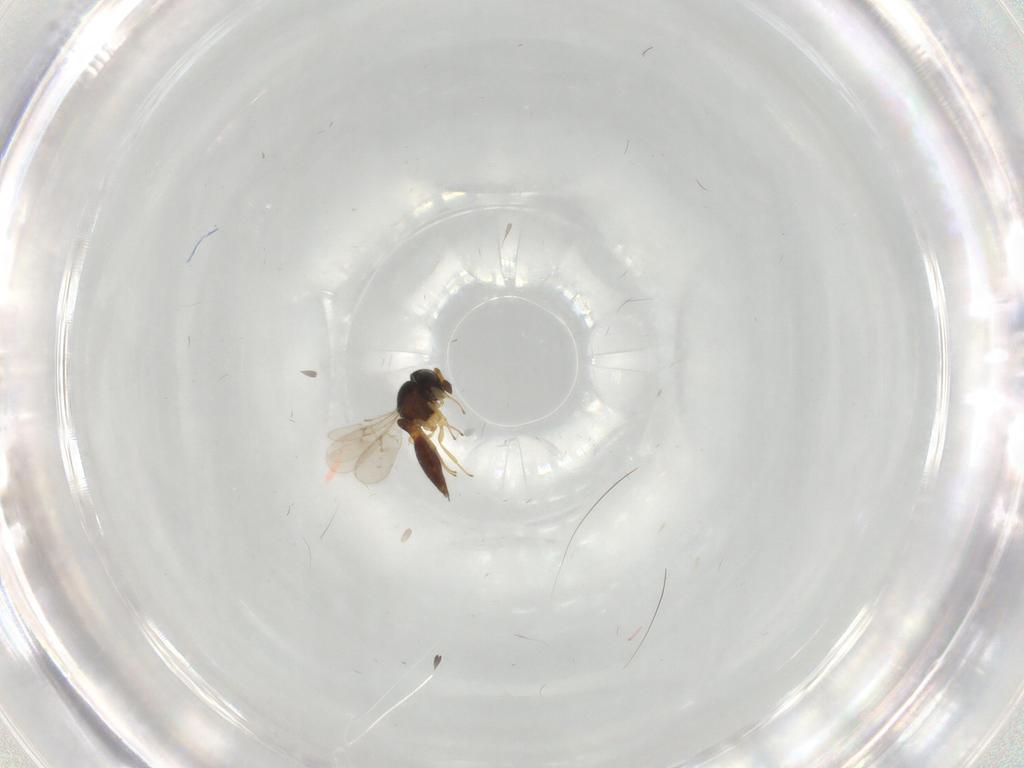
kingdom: Animalia
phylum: Arthropoda
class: Insecta
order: Hymenoptera
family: Scelionidae
